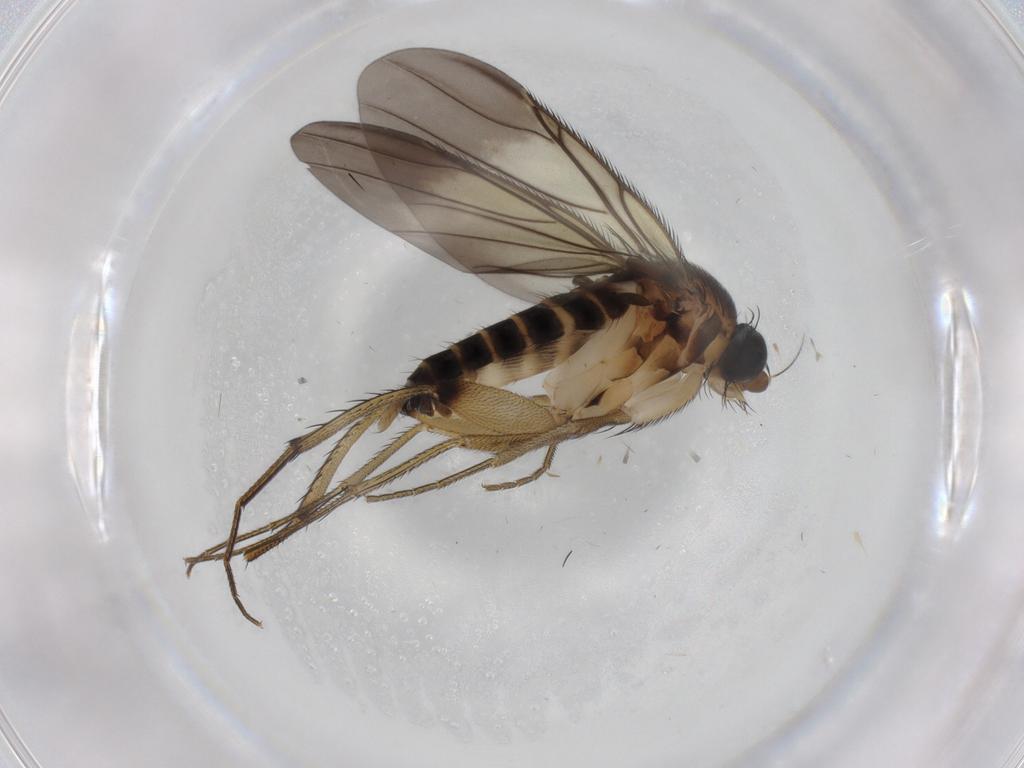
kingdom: Animalia
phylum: Arthropoda
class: Insecta
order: Diptera
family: Phoridae
